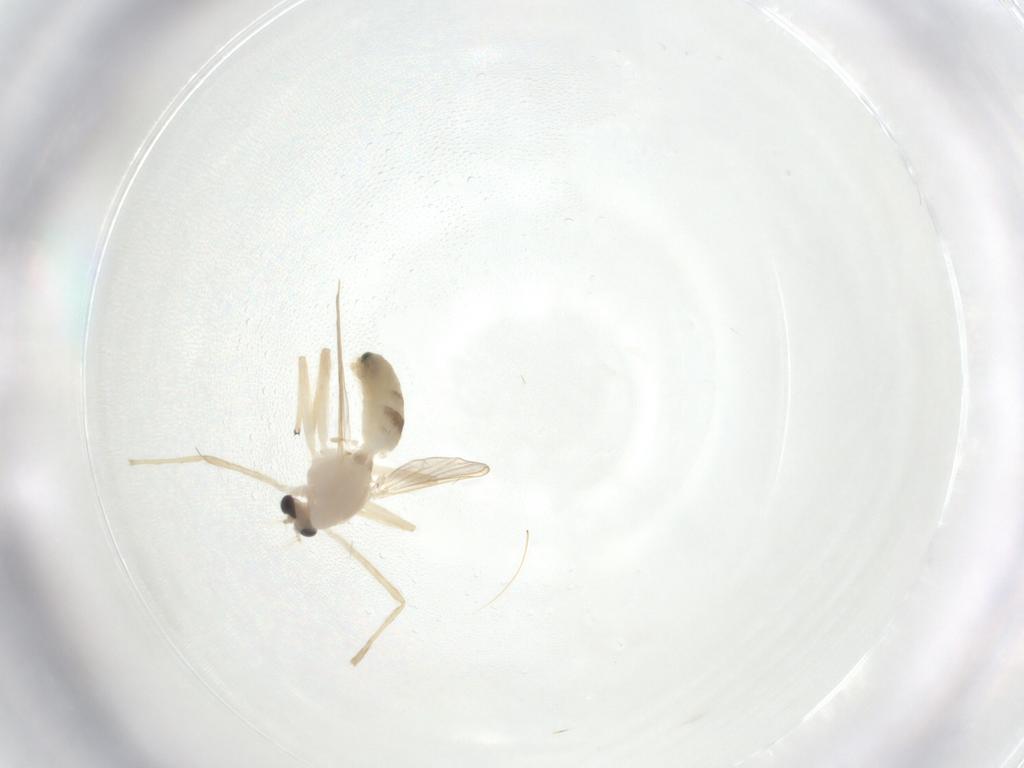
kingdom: Animalia
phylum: Arthropoda
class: Insecta
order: Diptera
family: Chironomidae
